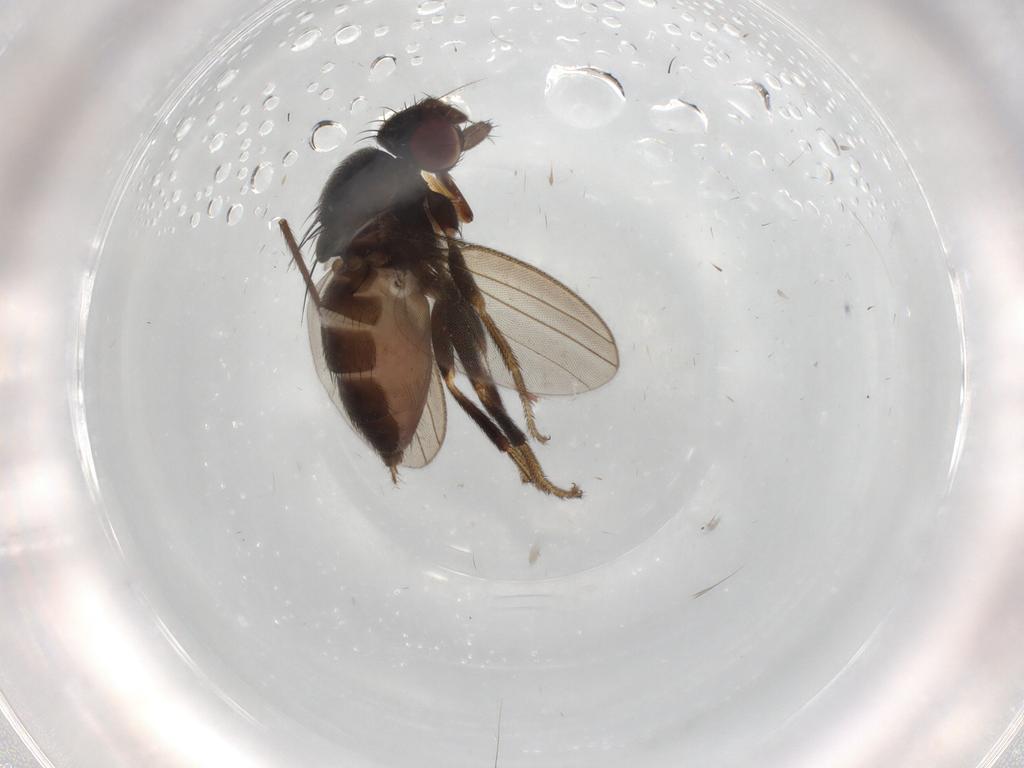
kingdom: Animalia
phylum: Arthropoda
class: Insecta
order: Diptera
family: Milichiidae
